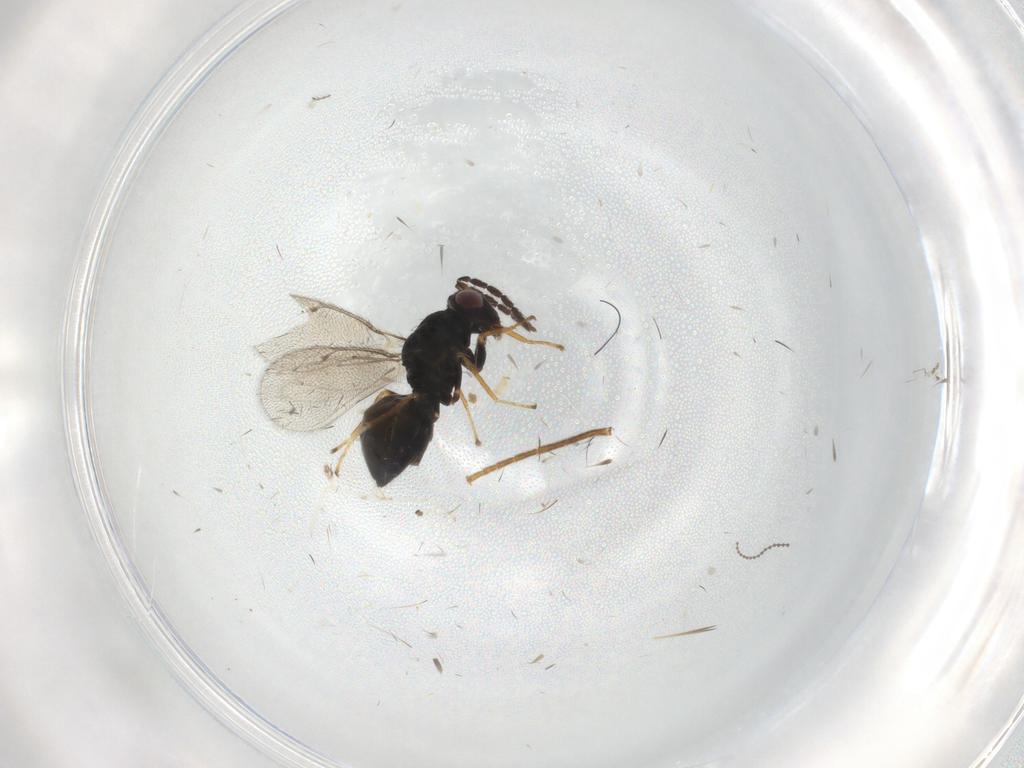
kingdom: Animalia
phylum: Arthropoda
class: Insecta
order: Hymenoptera
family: Eulophidae
